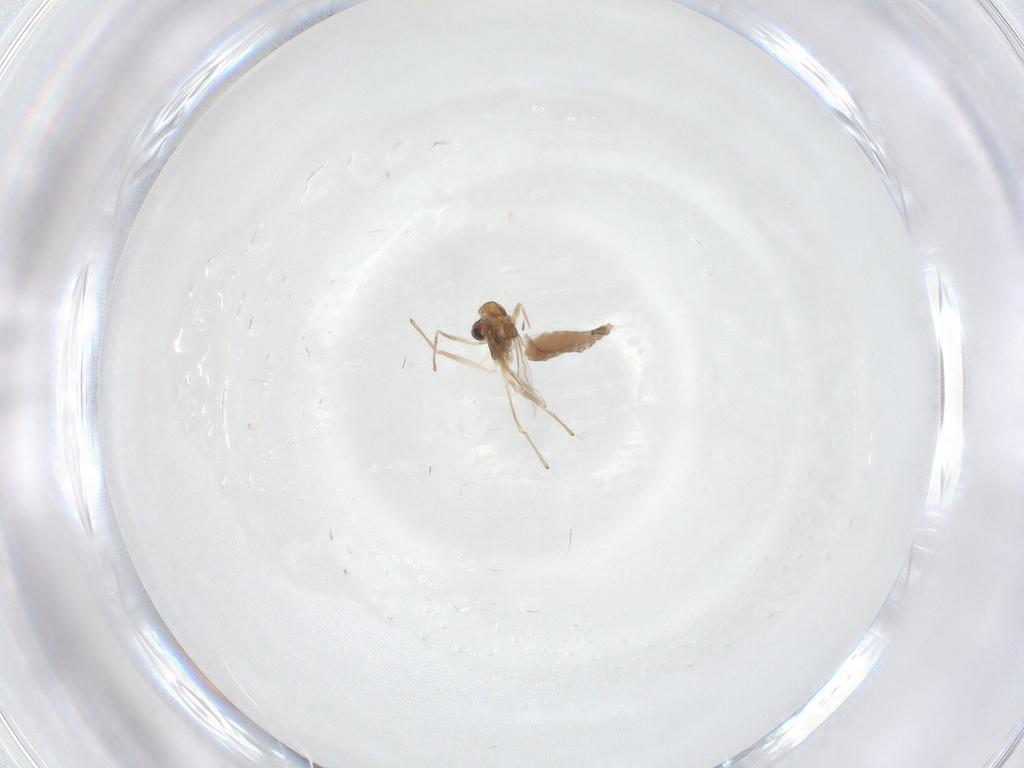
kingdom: Animalia
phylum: Arthropoda
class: Insecta
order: Diptera
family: Chironomidae
